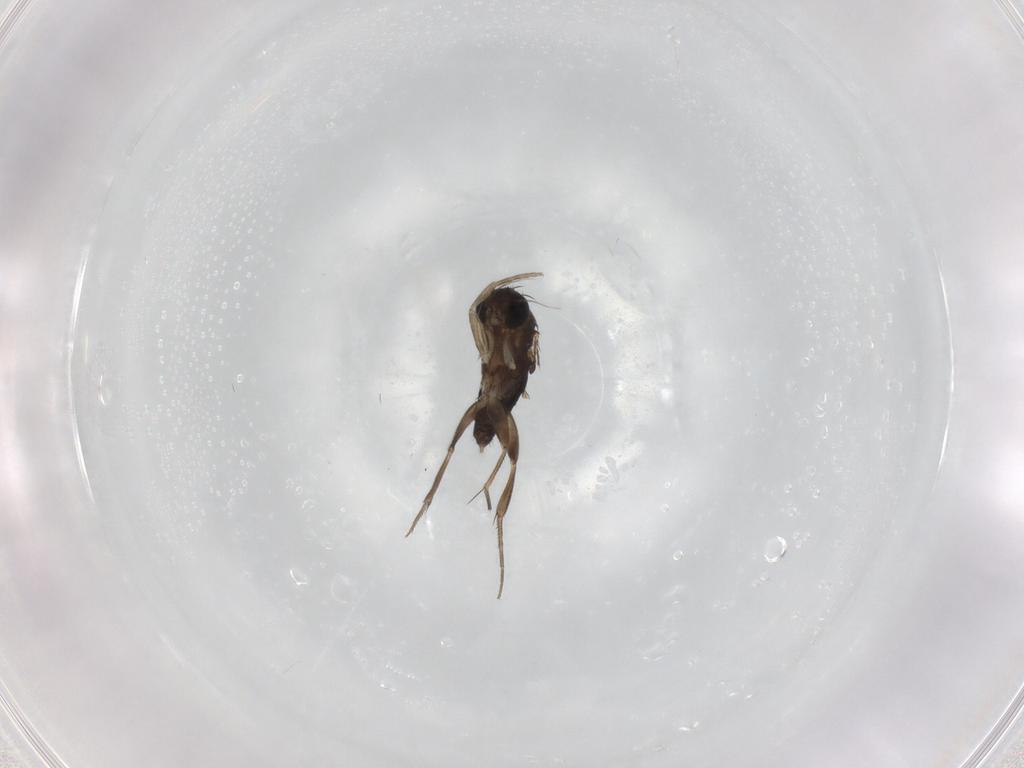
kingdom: Animalia
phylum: Arthropoda
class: Insecta
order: Diptera
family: Phoridae
